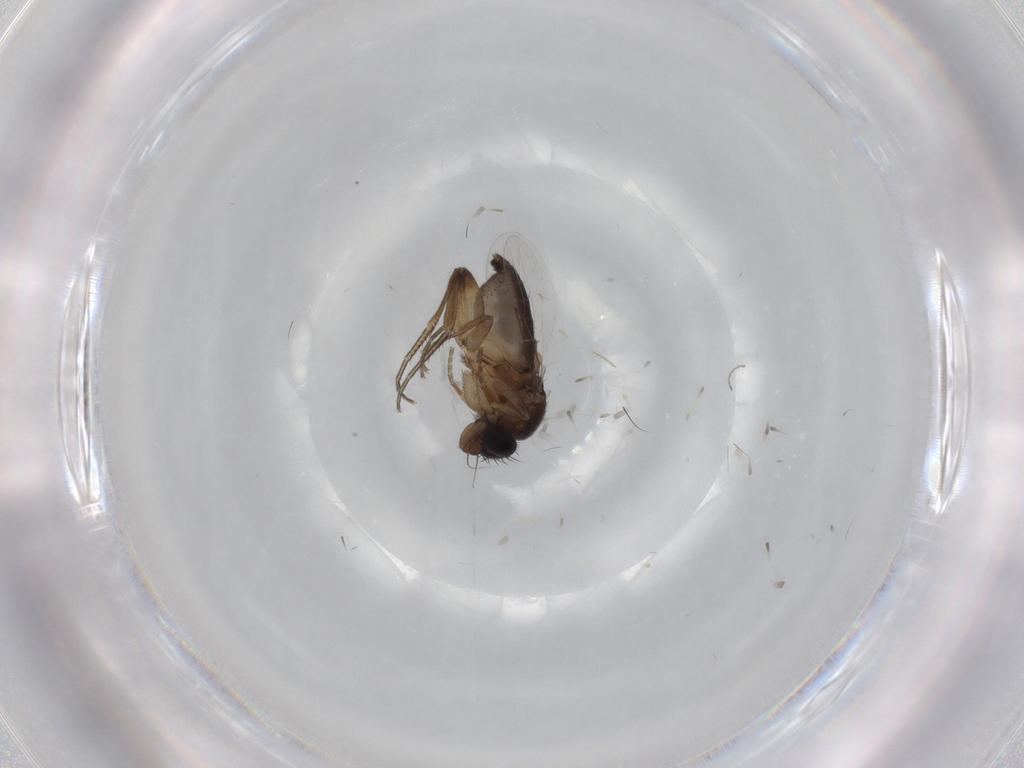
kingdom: Animalia
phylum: Arthropoda
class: Insecta
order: Diptera
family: Phoridae
